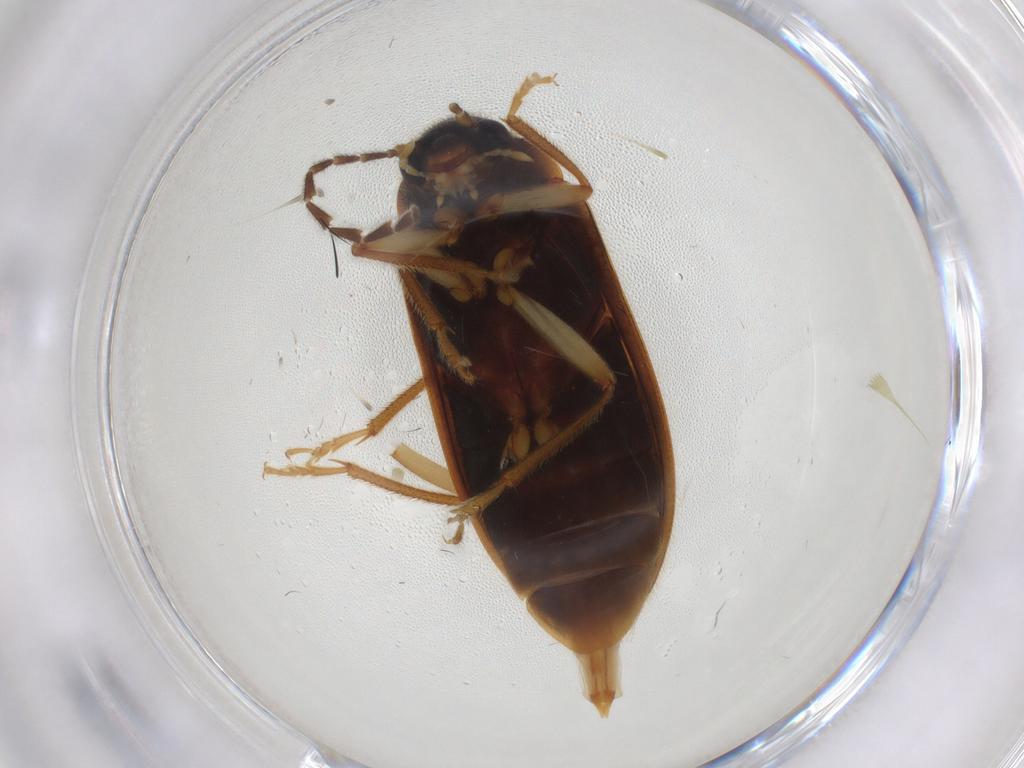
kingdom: Animalia
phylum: Arthropoda
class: Insecta
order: Coleoptera
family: Ptilodactylidae
